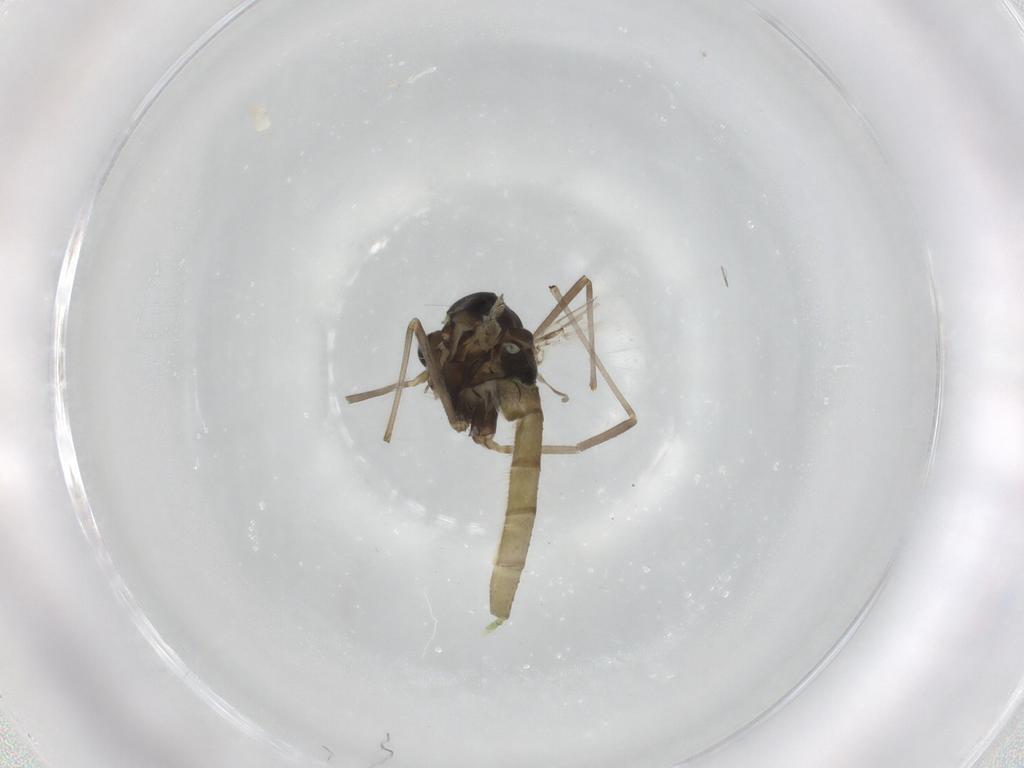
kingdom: Animalia
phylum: Arthropoda
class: Insecta
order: Diptera
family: Chironomidae
